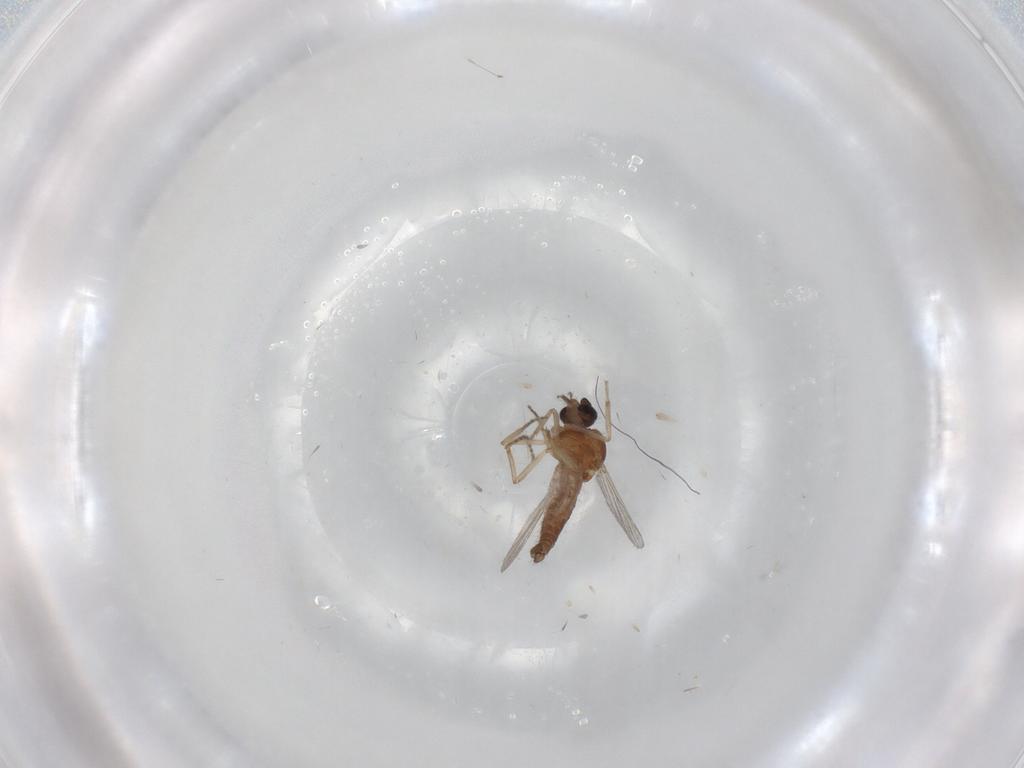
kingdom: Animalia
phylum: Arthropoda
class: Insecta
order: Diptera
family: Ceratopogonidae
